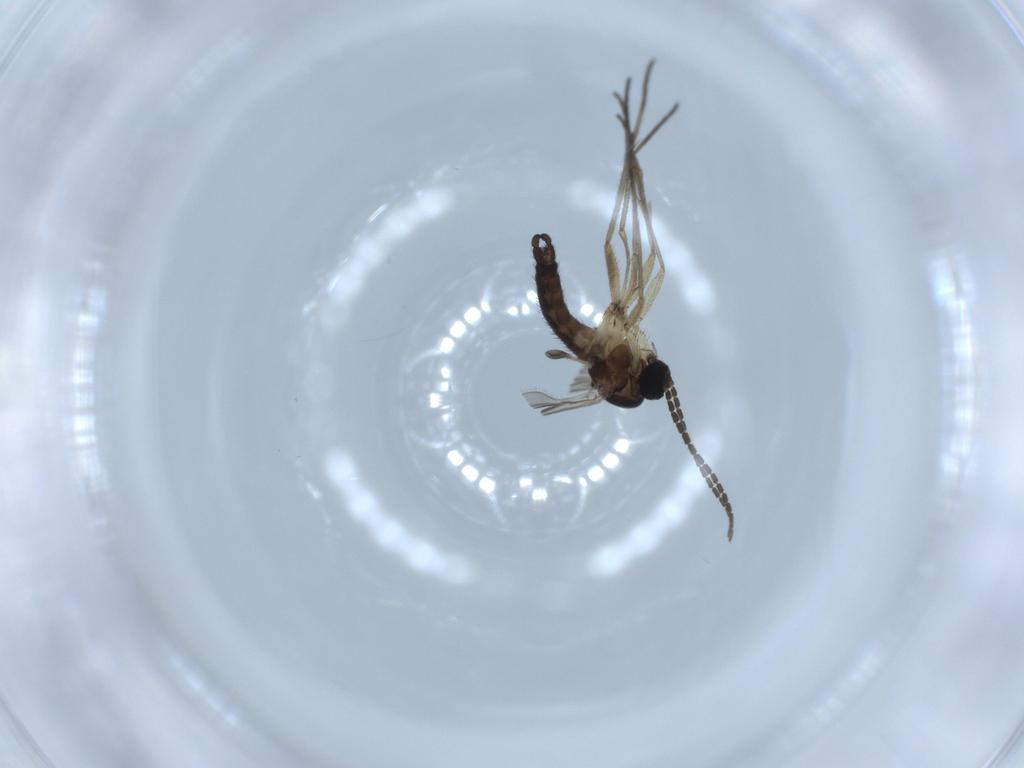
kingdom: Animalia
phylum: Arthropoda
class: Insecta
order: Diptera
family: Sciaridae
